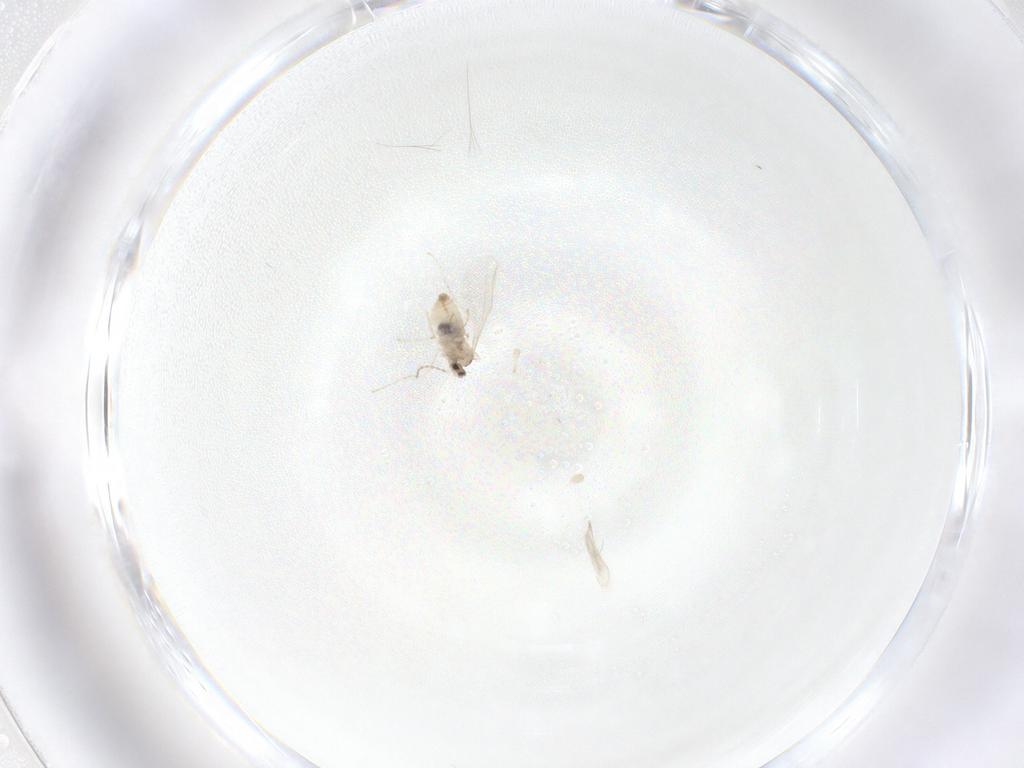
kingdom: Animalia
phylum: Arthropoda
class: Insecta
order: Diptera
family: Cecidomyiidae
